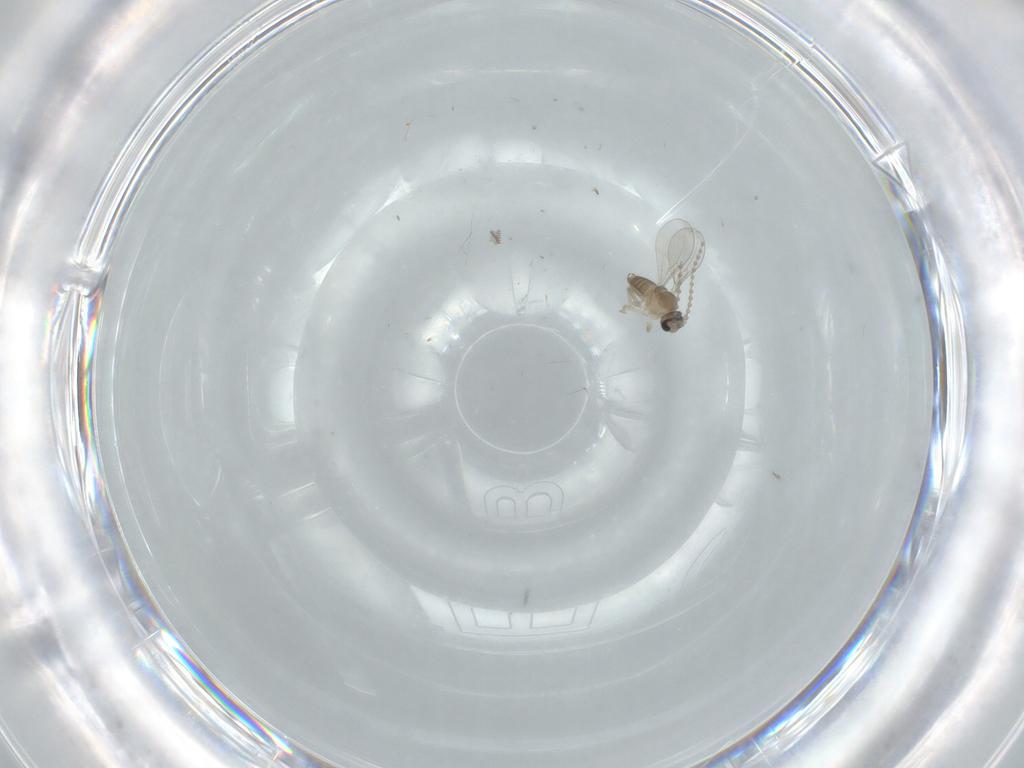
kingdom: Animalia
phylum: Arthropoda
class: Insecta
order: Diptera
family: Cecidomyiidae
